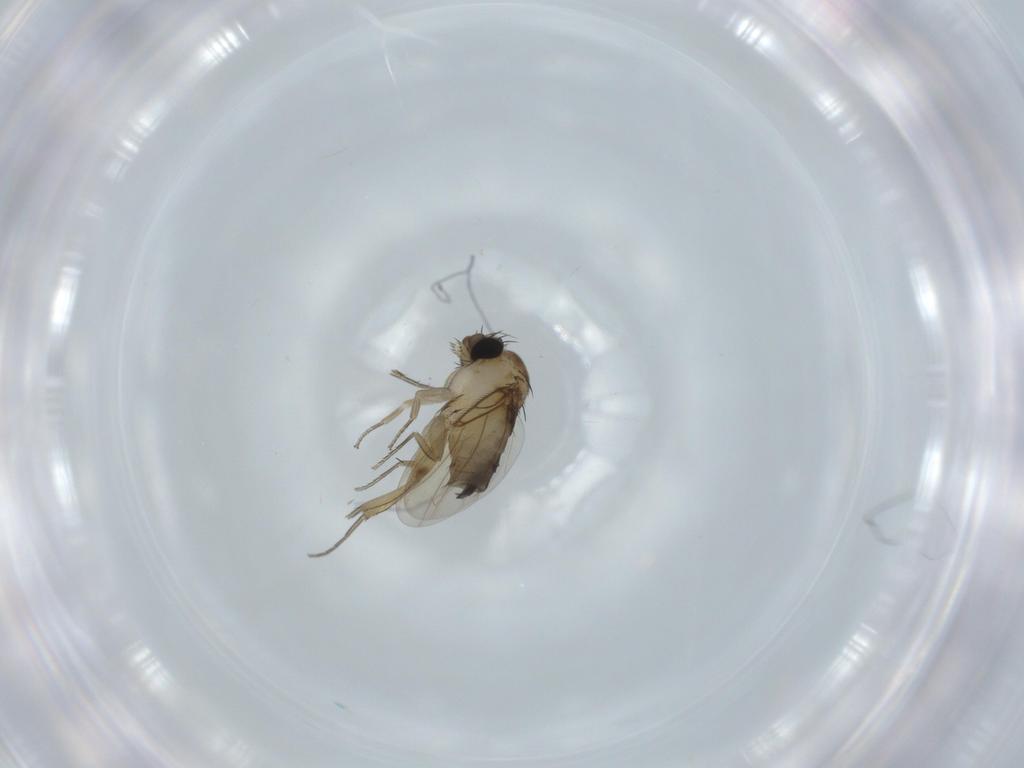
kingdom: Animalia
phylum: Arthropoda
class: Insecta
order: Diptera
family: Phoridae
